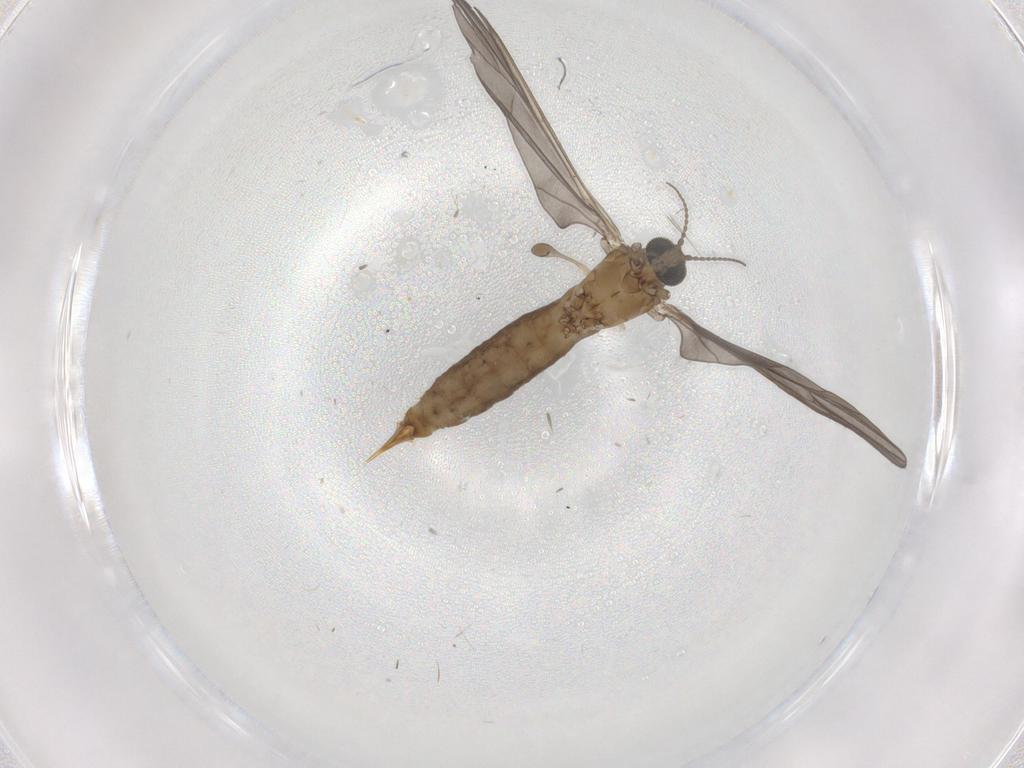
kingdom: Animalia
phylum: Arthropoda
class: Insecta
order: Diptera
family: Limoniidae
